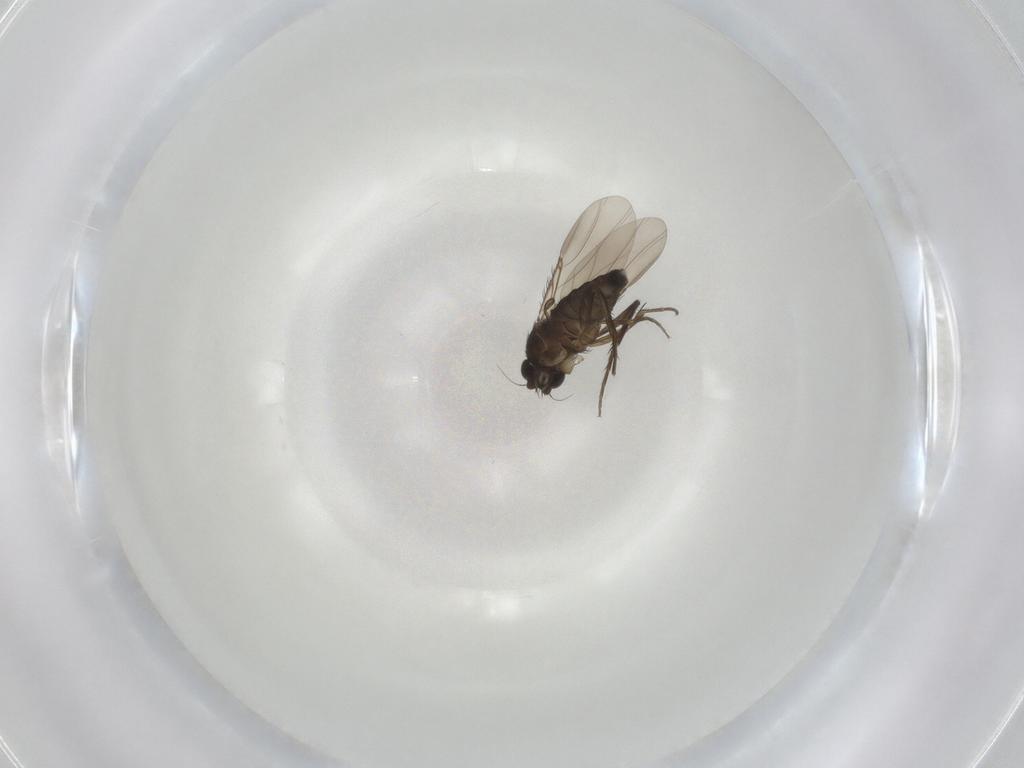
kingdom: Animalia
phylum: Arthropoda
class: Insecta
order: Diptera
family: Phoridae
